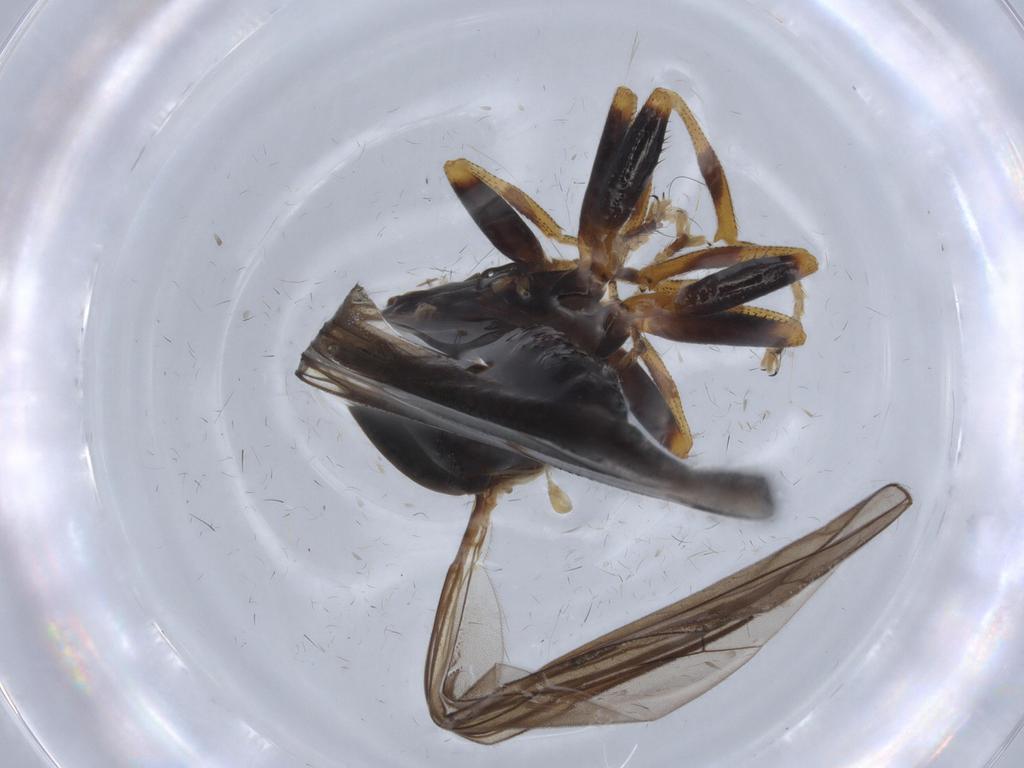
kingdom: Animalia
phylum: Arthropoda
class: Insecta
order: Diptera
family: Pipunculidae
